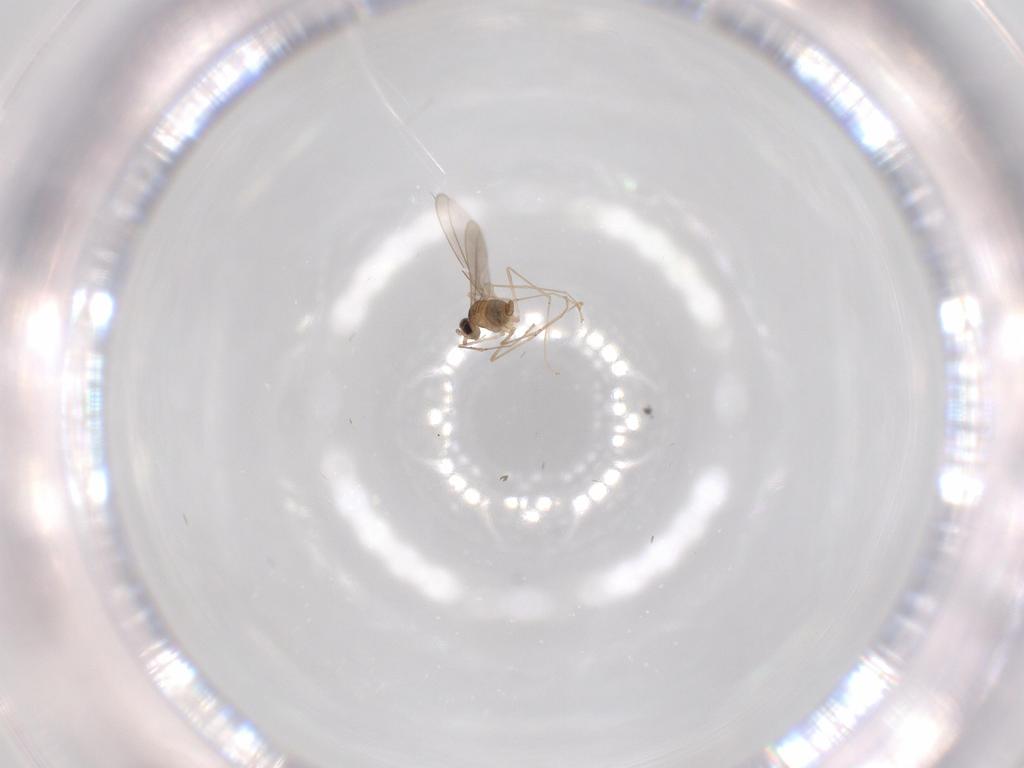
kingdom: Animalia
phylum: Arthropoda
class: Insecta
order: Diptera
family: Cecidomyiidae
